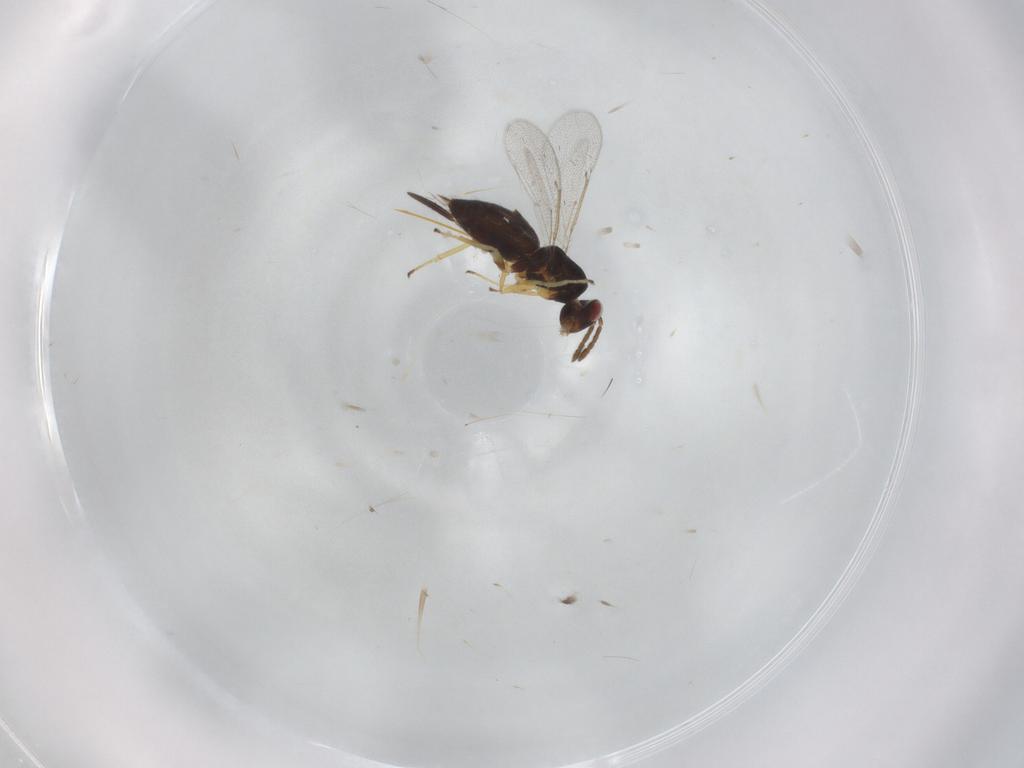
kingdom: Animalia
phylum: Arthropoda
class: Insecta
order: Hymenoptera
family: Eulophidae
